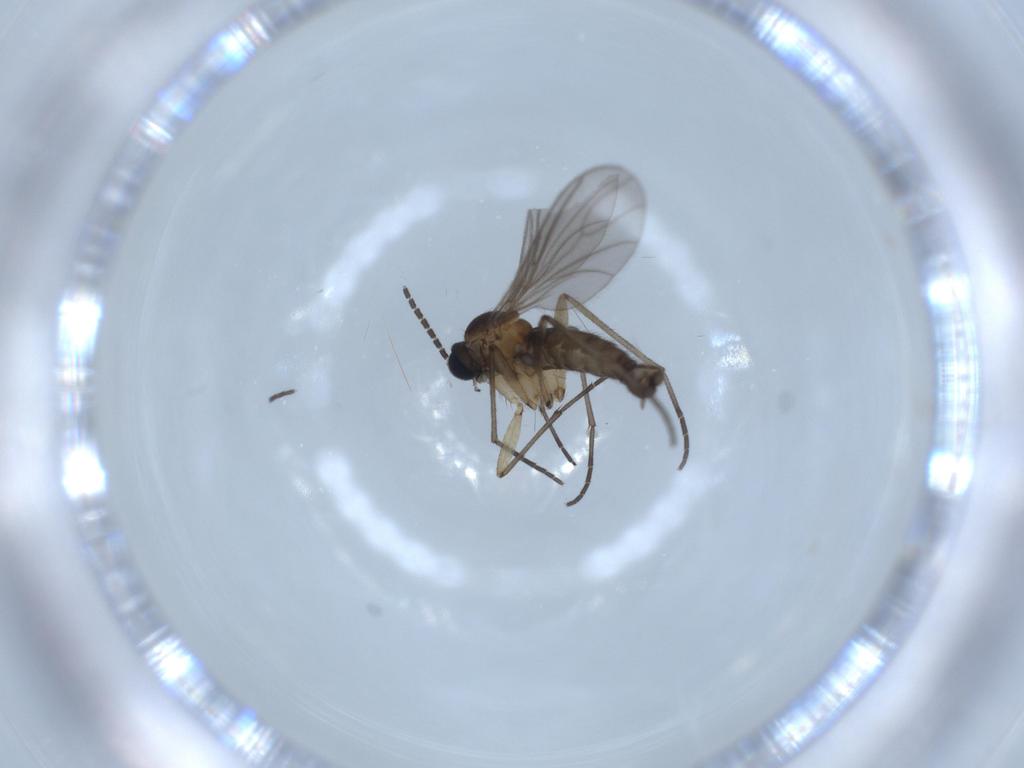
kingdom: Animalia
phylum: Arthropoda
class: Insecta
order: Diptera
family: Sciaridae
